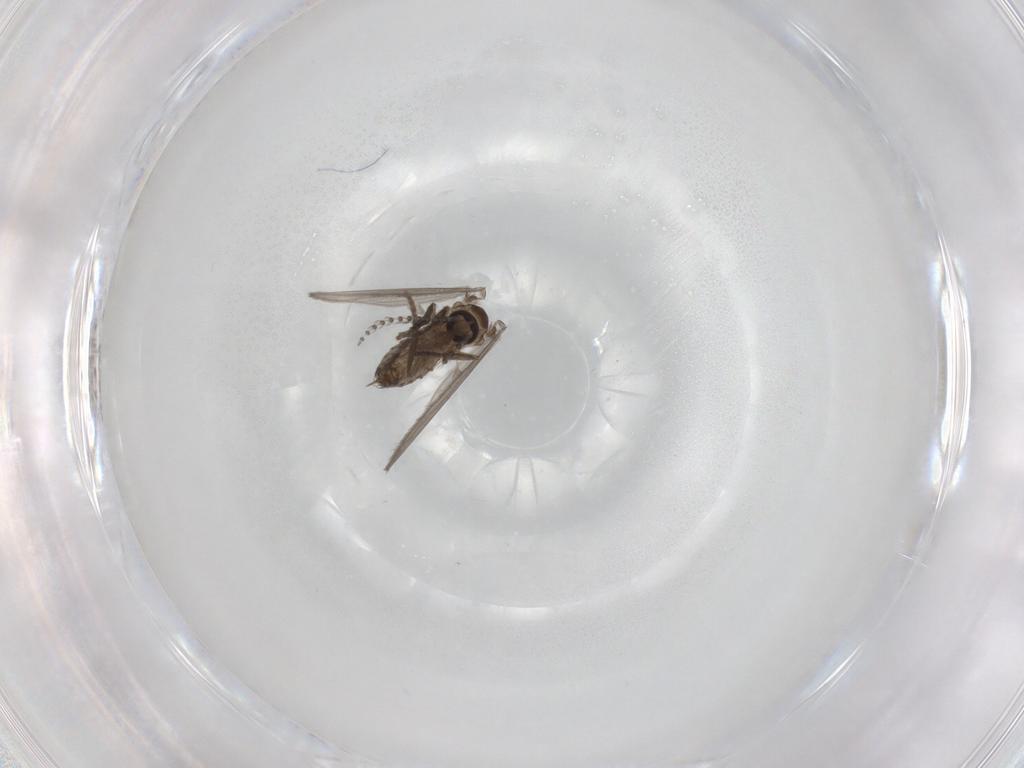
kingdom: Animalia
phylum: Arthropoda
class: Insecta
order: Diptera
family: Psychodidae
